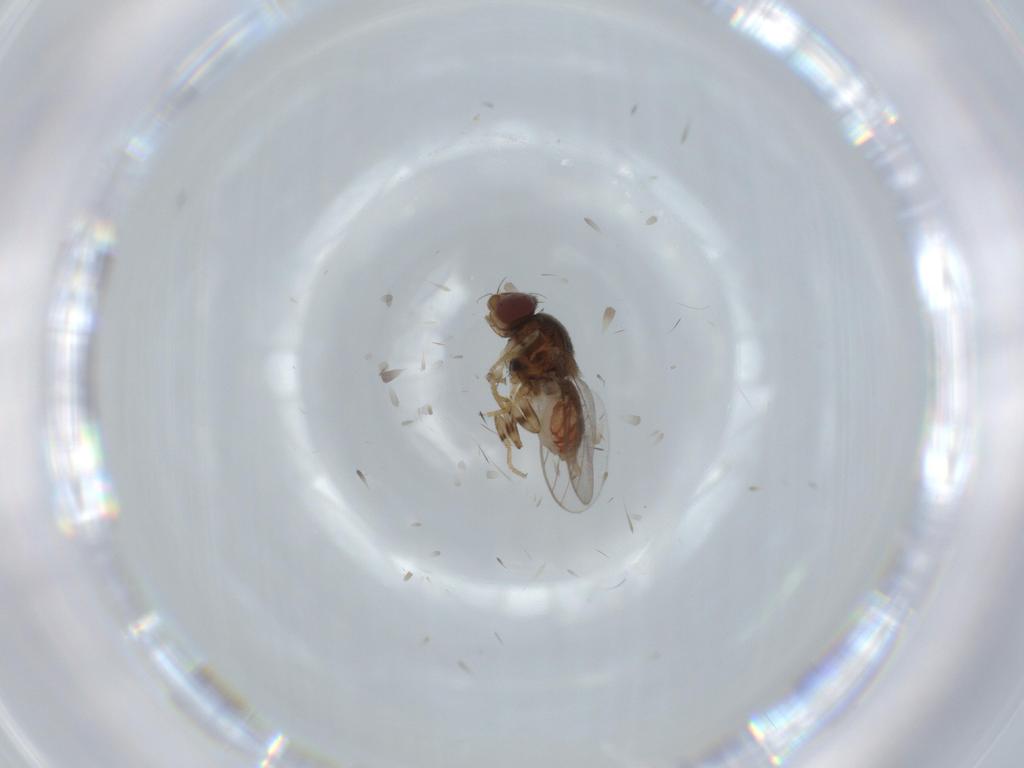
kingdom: Animalia
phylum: Arthropoda
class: Insecta
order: Diptera
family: Chloropidae
